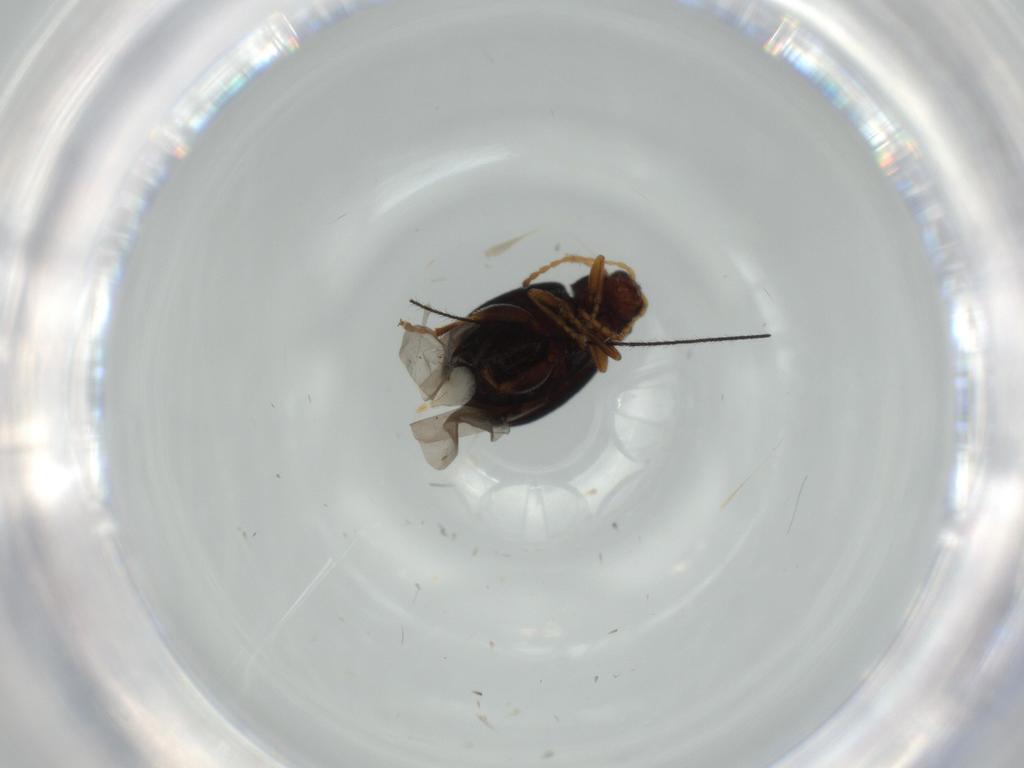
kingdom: Animalia
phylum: Arthropoda
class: Insecta
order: Coleoptera
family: Chrysomelidae
